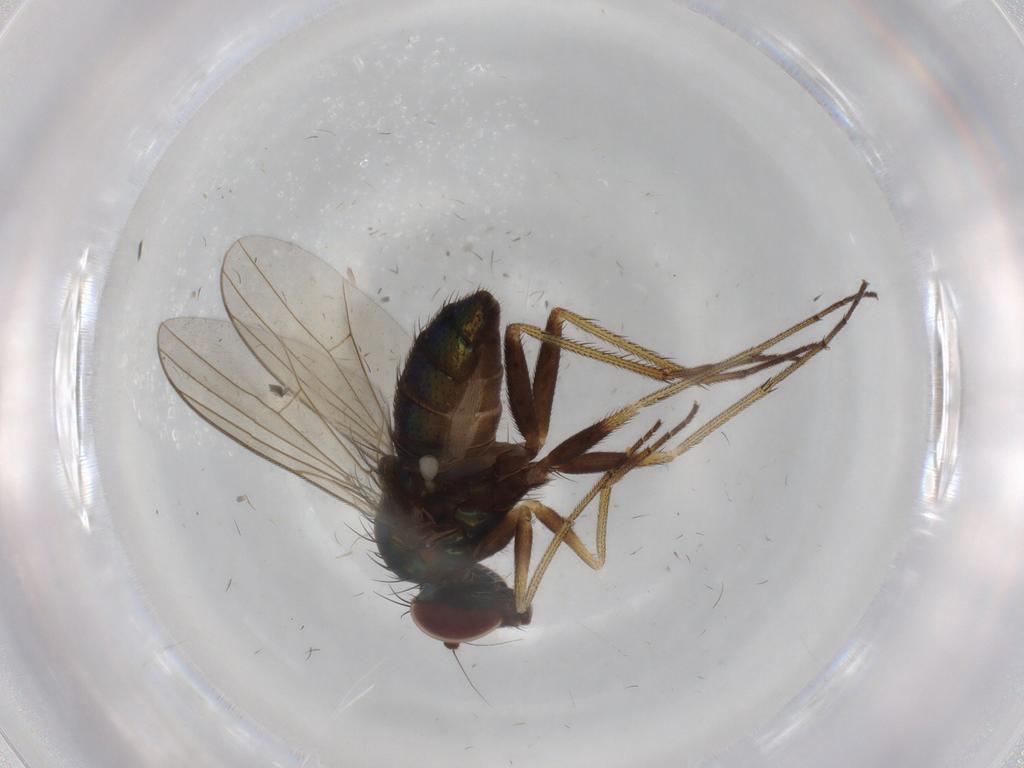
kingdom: Animalia
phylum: Arthropoda
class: Insecta
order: Diptera
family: Dolichopodidae
